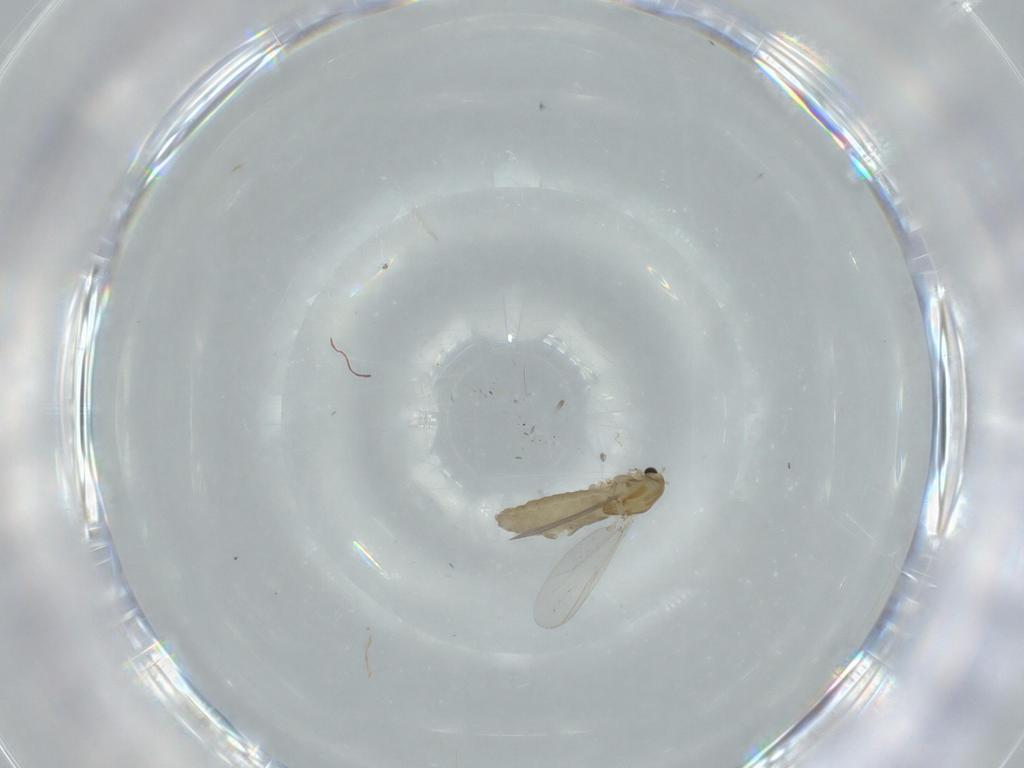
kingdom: Animalia
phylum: Arthropoda
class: Insecta
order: Diptera
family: Chironomidae
